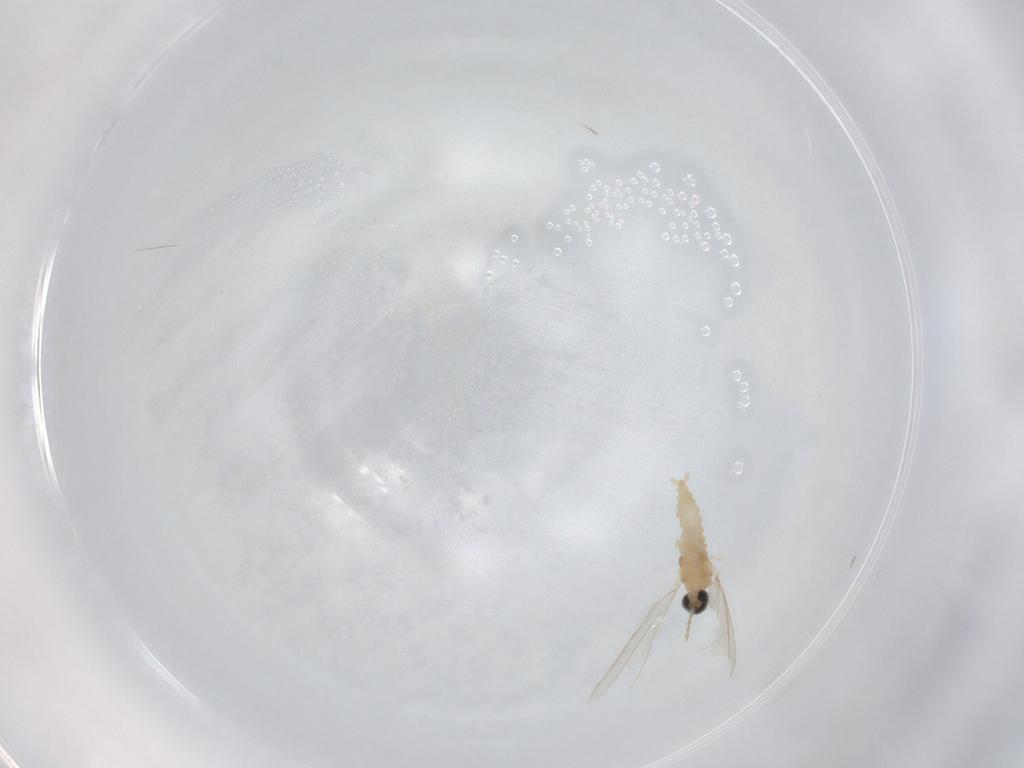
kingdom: Animalia
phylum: Arthropoda
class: Insecta
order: Diptera
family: Cecidomyiidae
